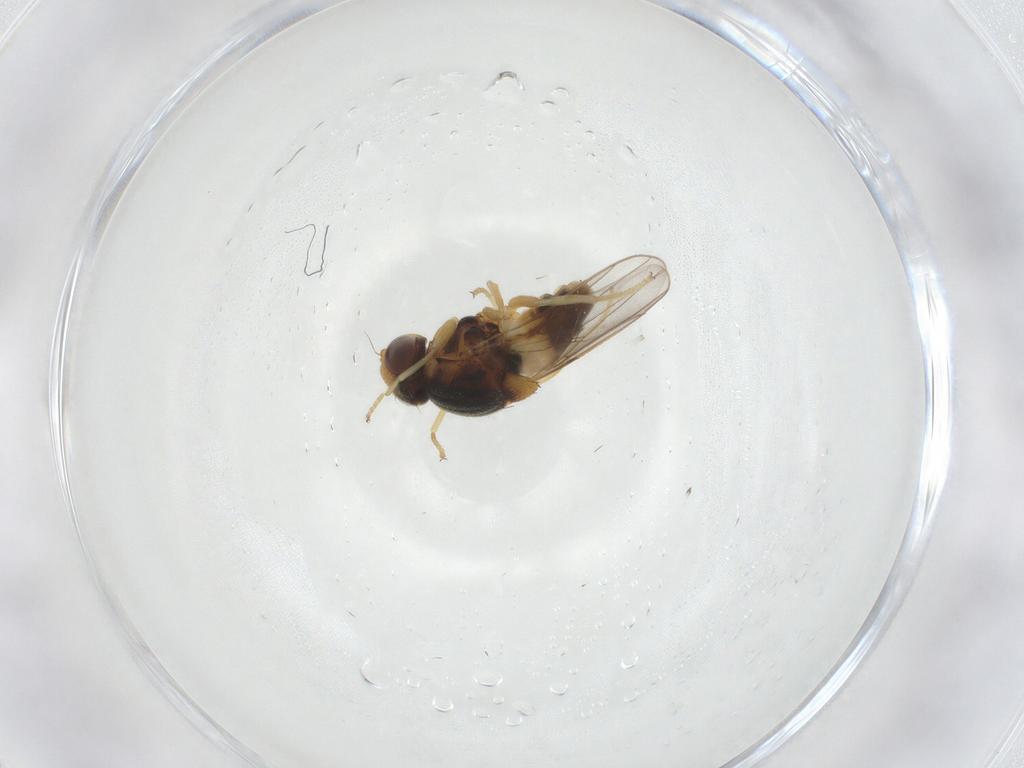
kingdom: Animalia
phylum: Arthropoda
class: Insecta
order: Diptera
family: Chloropidae
